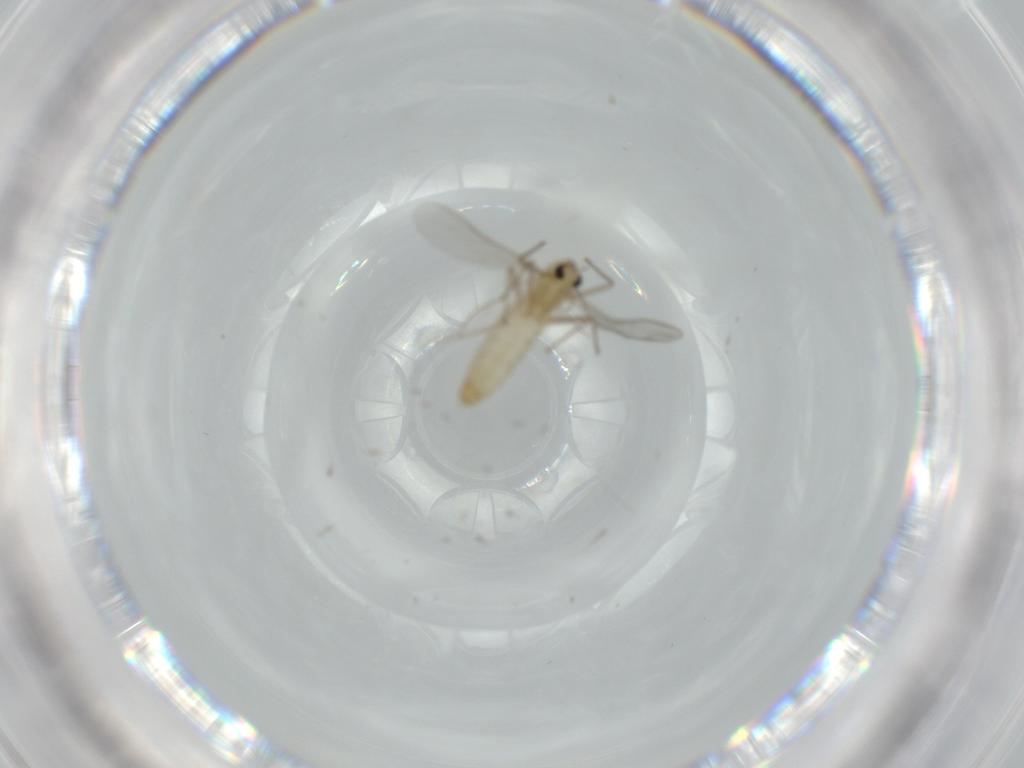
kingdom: Animalia
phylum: Arthropoda
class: Insecta
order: Diptera
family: Chironomidae
